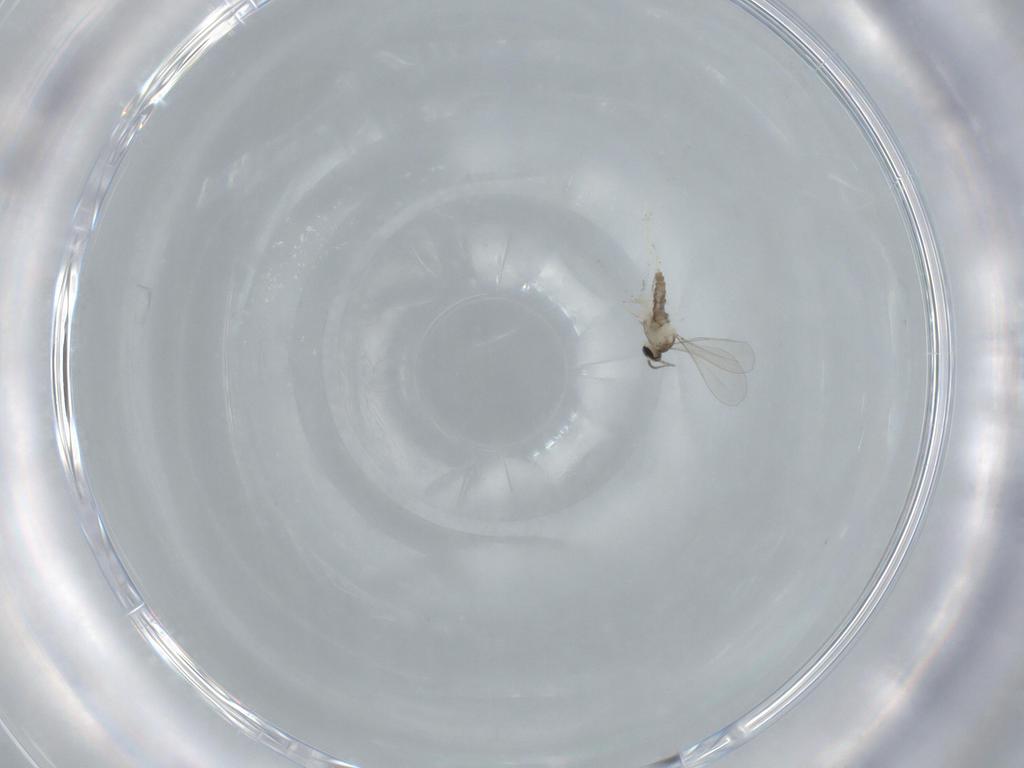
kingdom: Animalia
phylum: Arthropoda
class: Insecta
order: Diptera
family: Cecidomyiidae
